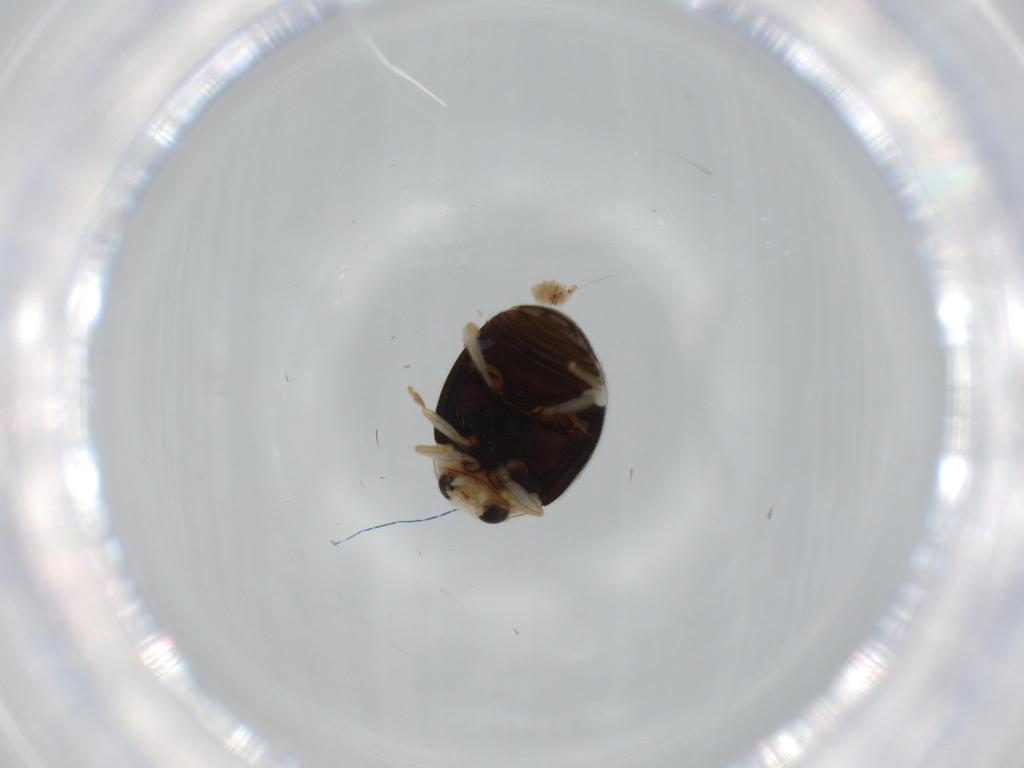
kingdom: Animalia
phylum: Arthropoda
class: Insecta
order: Coleoptera
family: Coccinellidae
